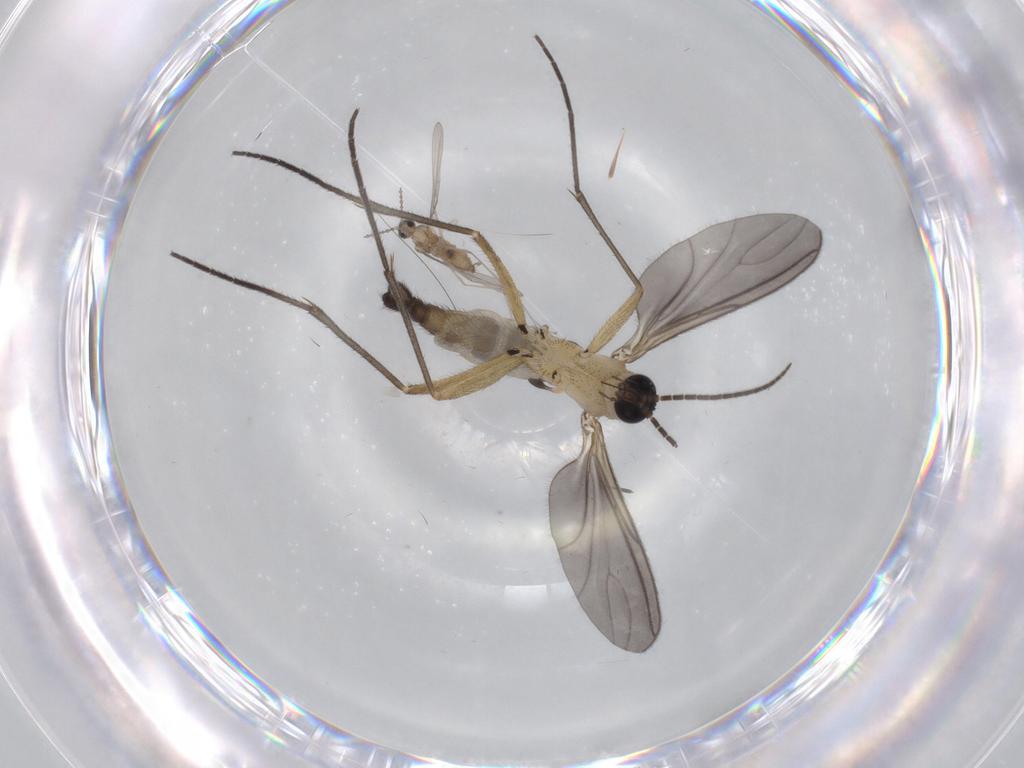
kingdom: Animalia
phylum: Arthropoda
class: Insecta
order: Diptera
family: Sciaridae
